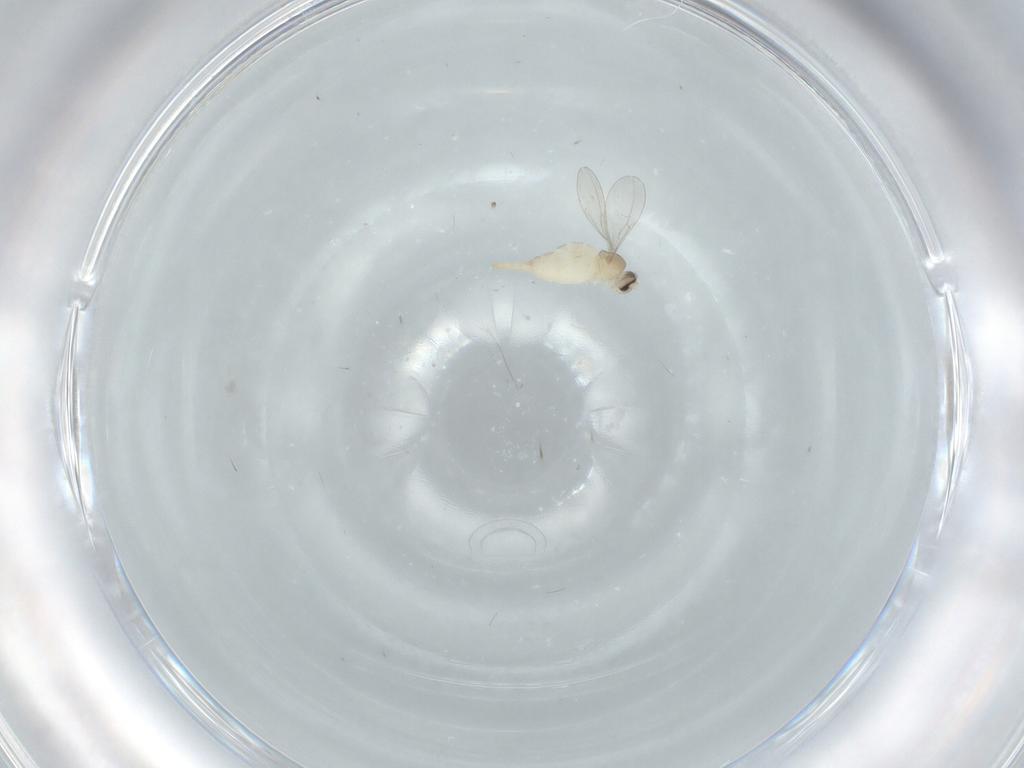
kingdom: Animalia
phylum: Arthropoda
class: Insecta
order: Diptera
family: Cecidomyiidae
